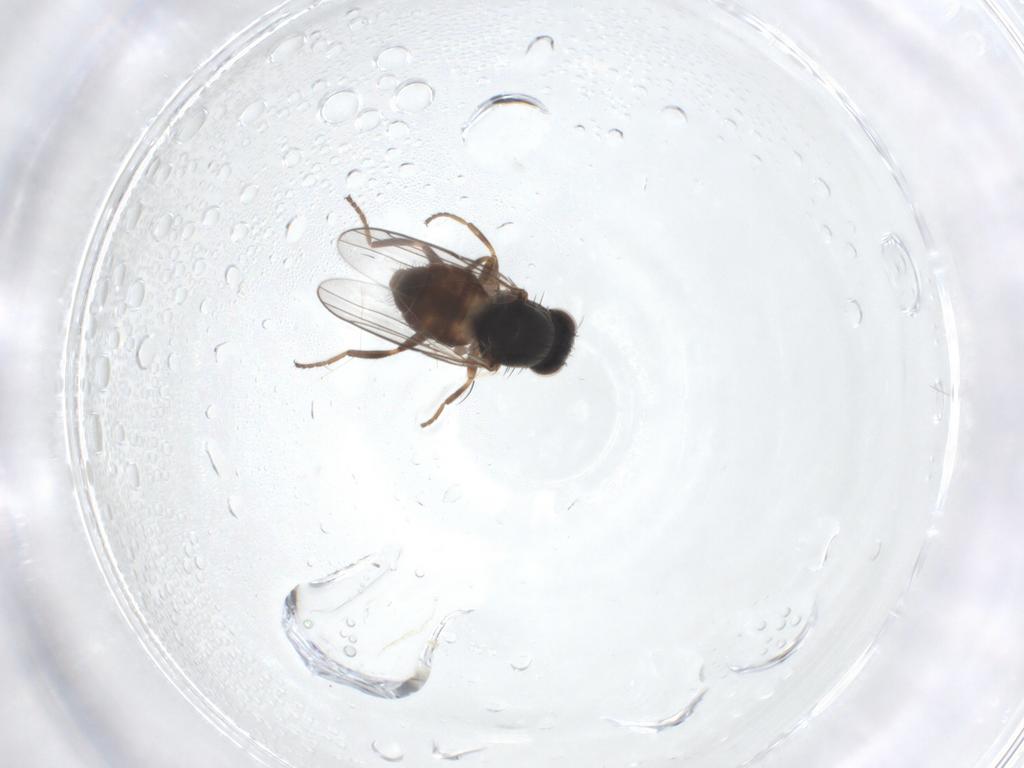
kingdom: Animalia
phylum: Arthropoda
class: Insecta
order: Diptera
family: Chloropidae
